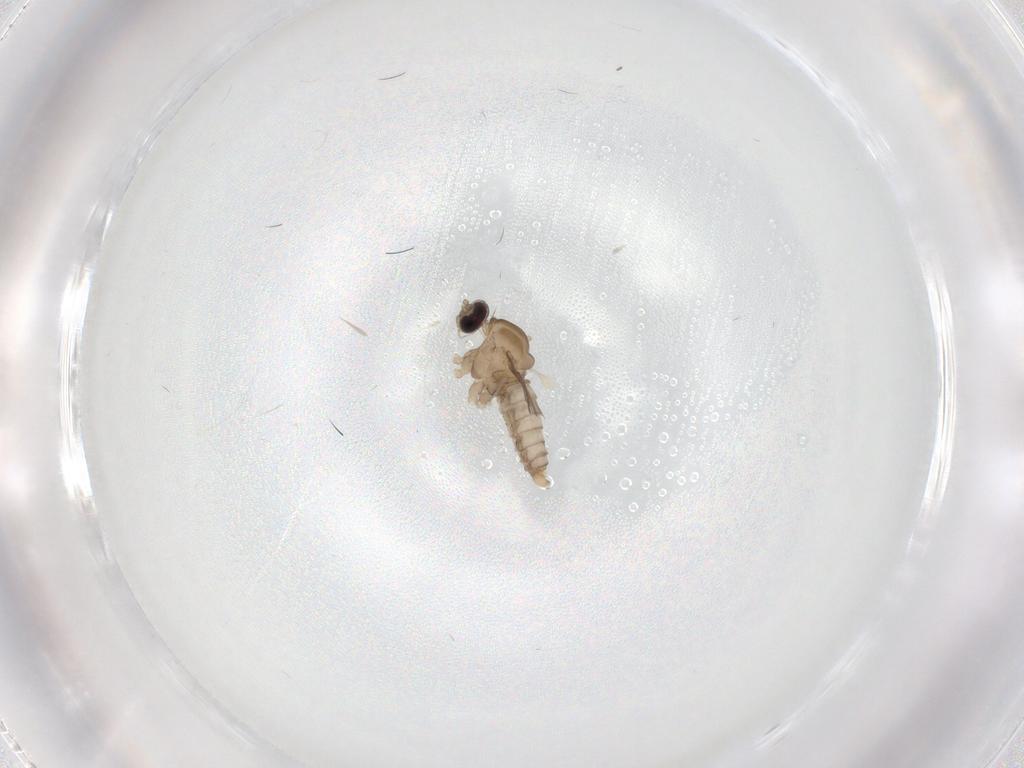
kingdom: Animalia
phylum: Arthropoda
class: Insecta
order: Diptera
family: Cecidomyiidae
